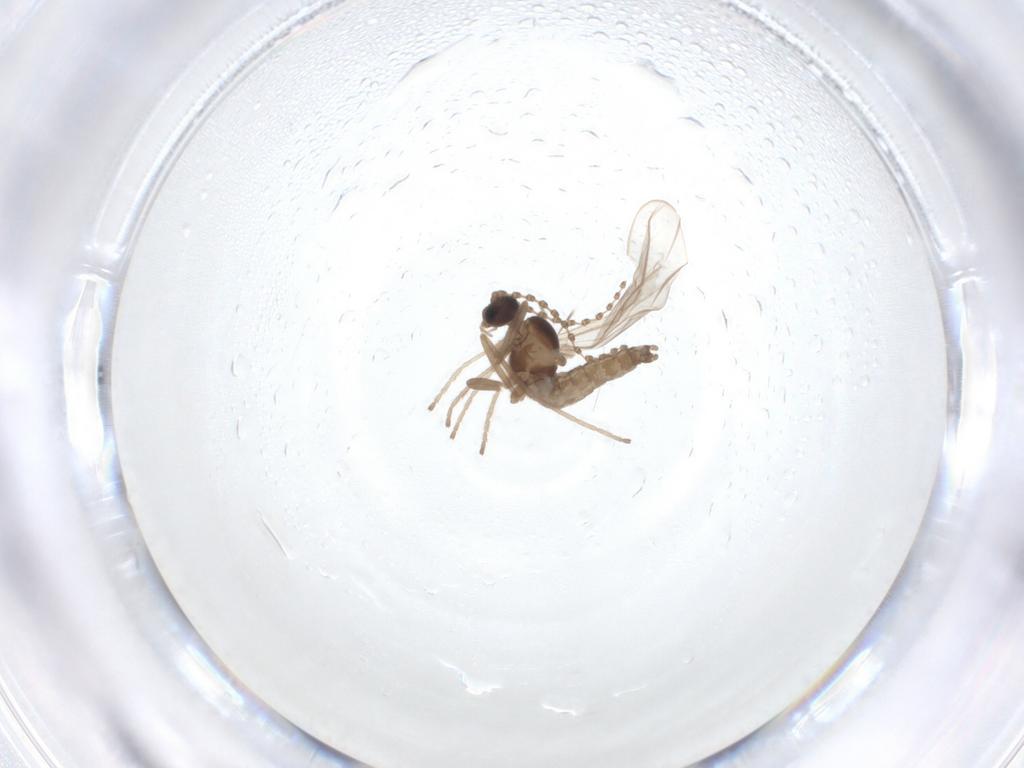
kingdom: Animalia
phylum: Arthropoda
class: Insecta
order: Diptera
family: Cecidomyiidae
